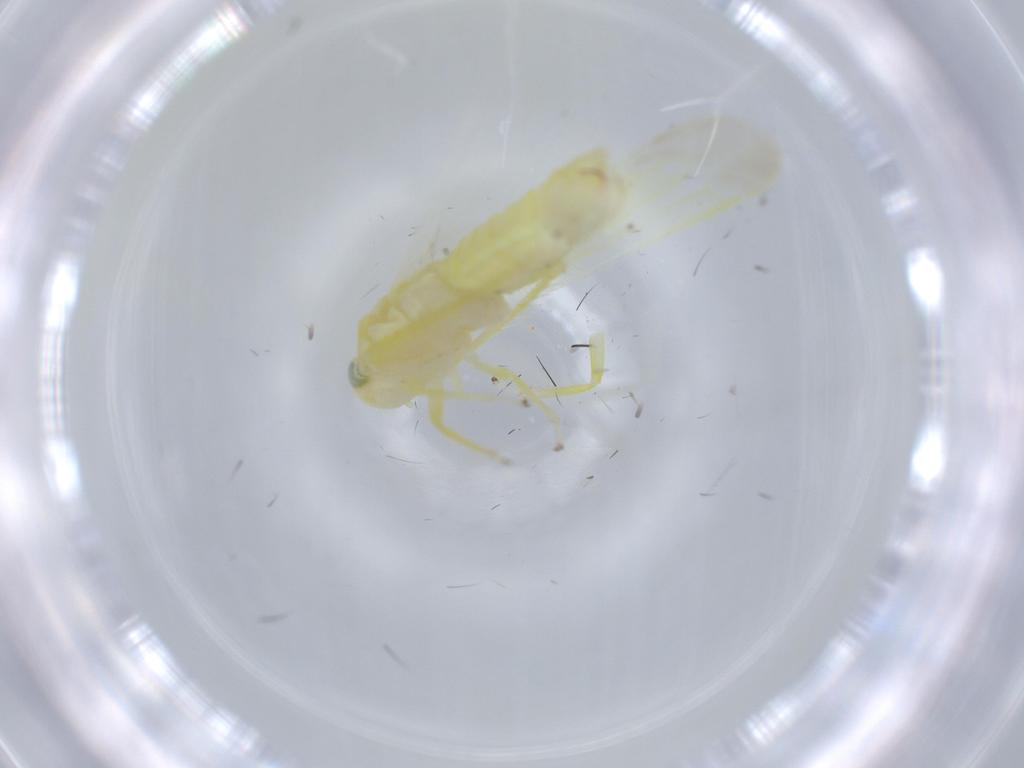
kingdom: Animalia
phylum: Arthropoda
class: Insecta
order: Hemiptera
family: Cicadellidae
